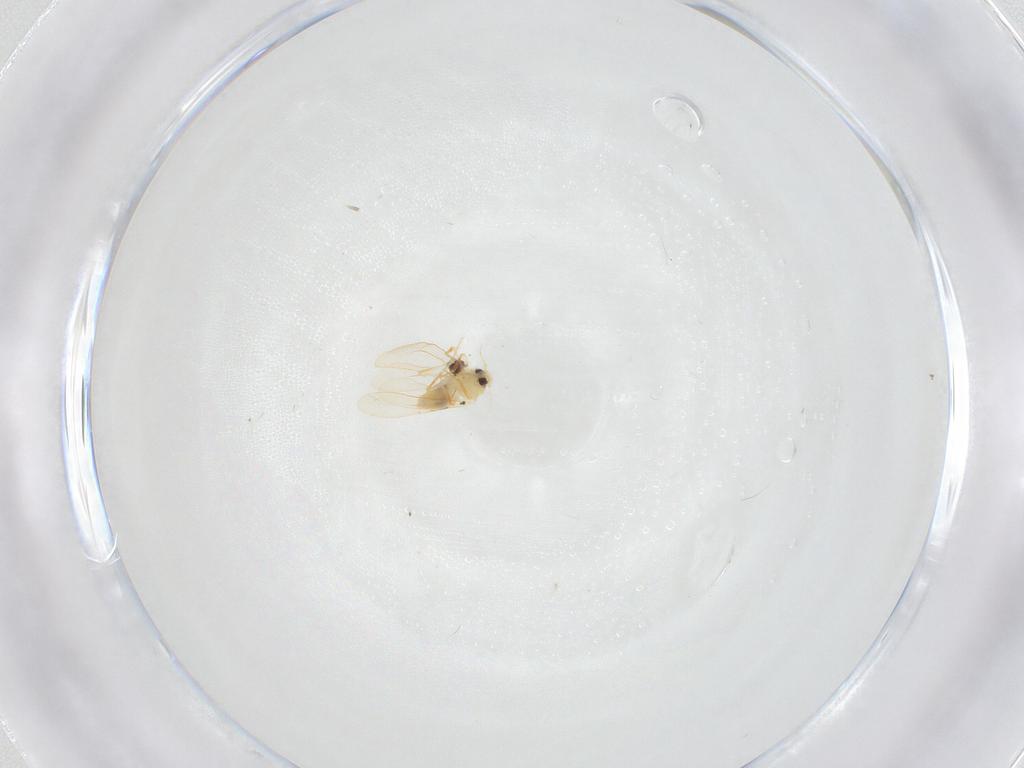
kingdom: Animalia
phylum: Arthropoda
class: Insecta
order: Hemiptera
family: Aleyrodidae
